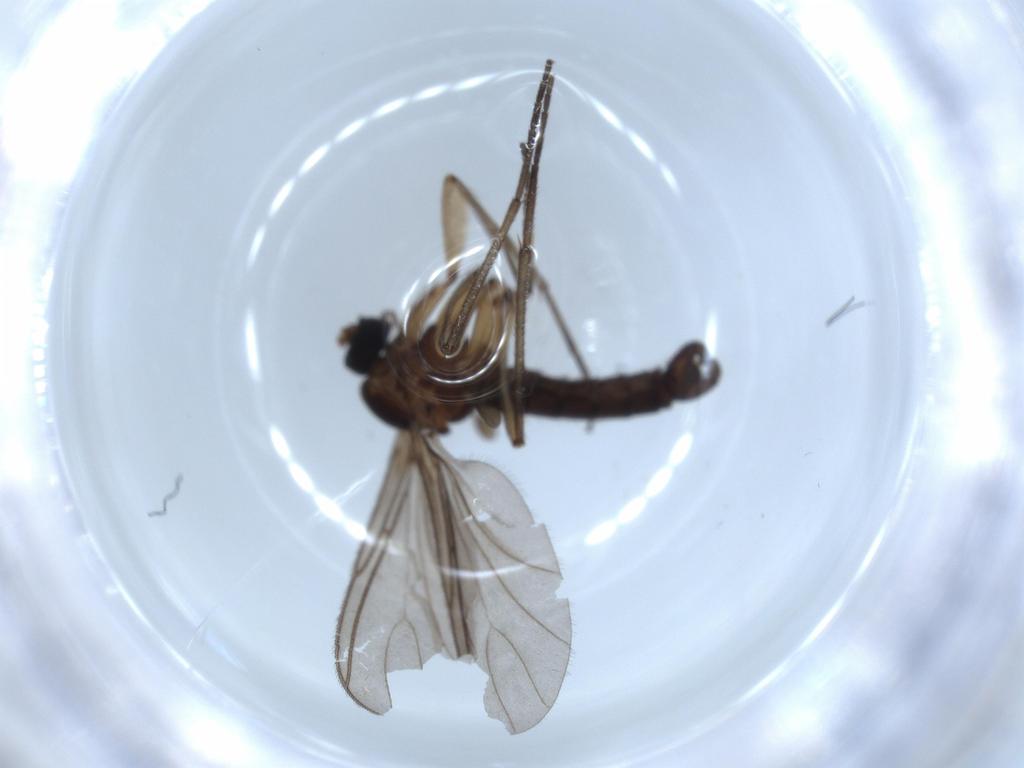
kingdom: Animalia
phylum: Arthropoda
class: Insecta
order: Diptera
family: Sciaridae
